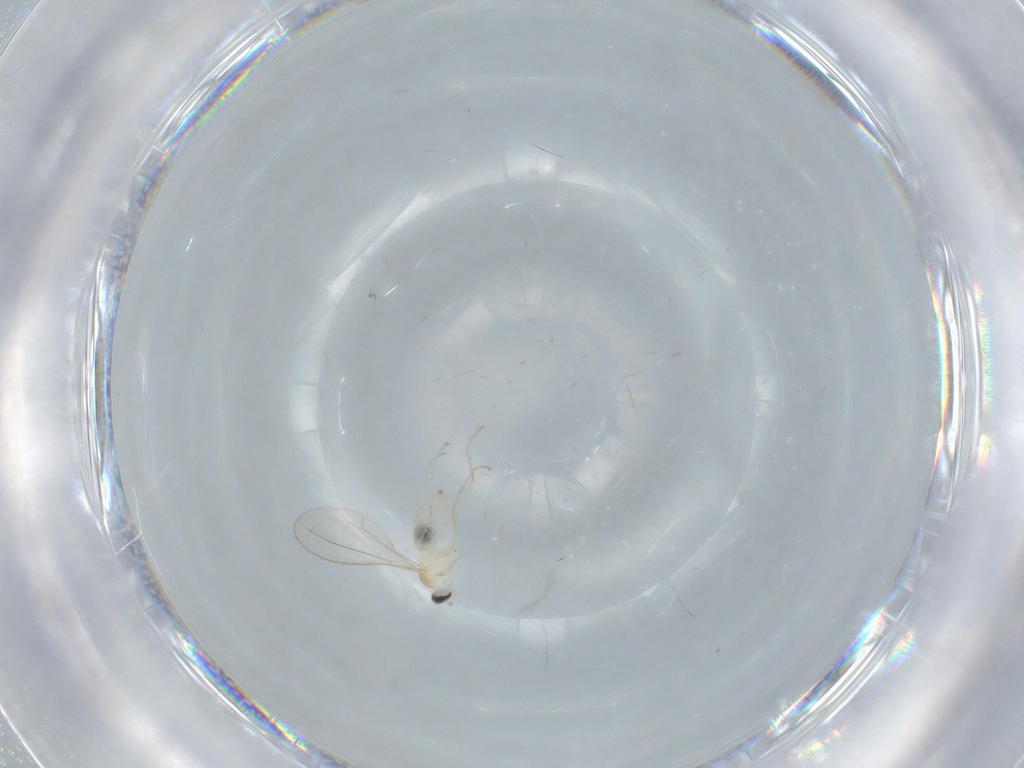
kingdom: Animalia
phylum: Arthropoda
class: Insecta
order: Diptera
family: Cecidomyiidae
